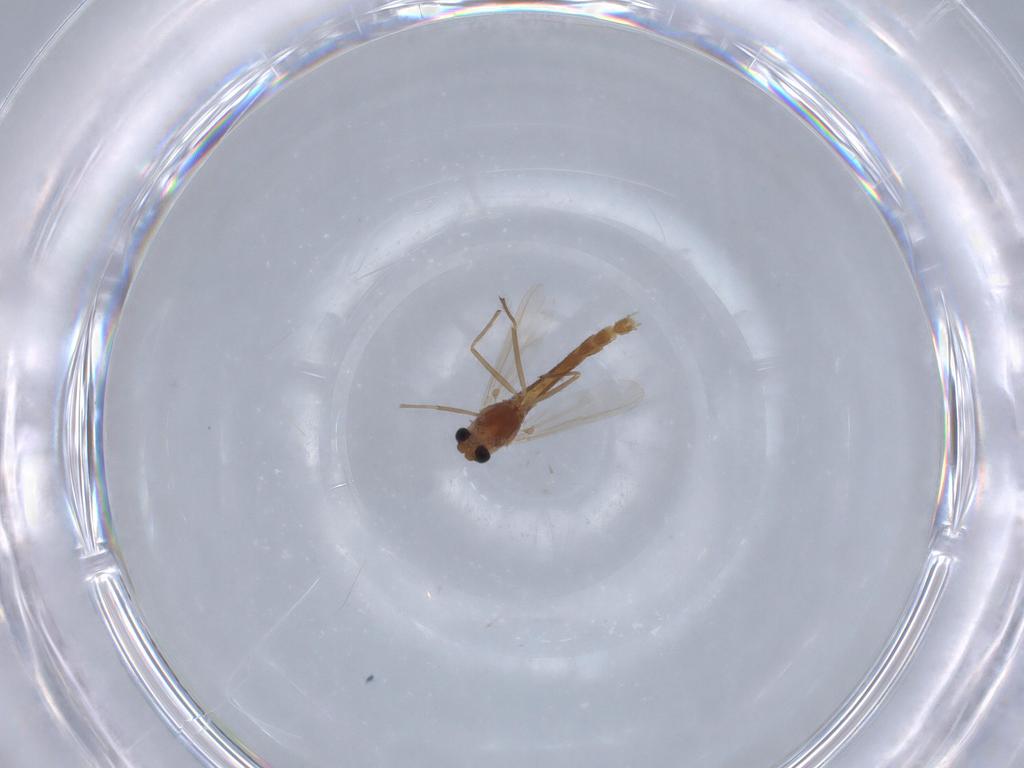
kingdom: Animalia
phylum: Arthropoda
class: Insecta
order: Diptera
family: Chironomidae
